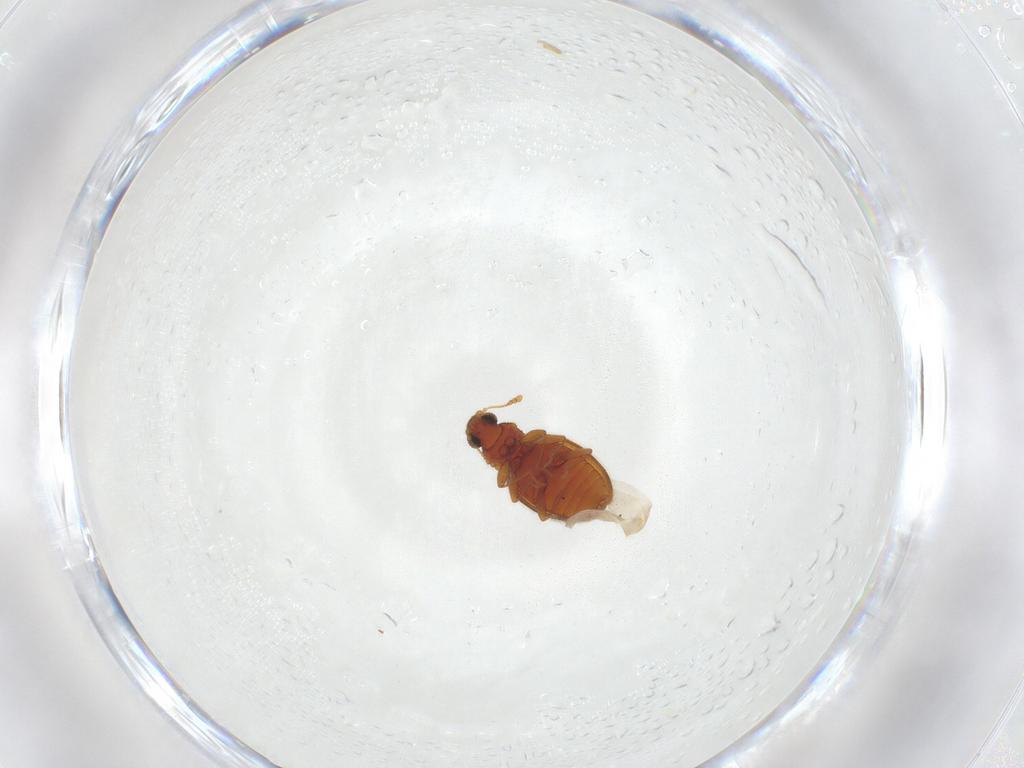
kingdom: Animalia
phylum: Arthropoda
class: Insecta
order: Coleoptera
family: Latridiidae
